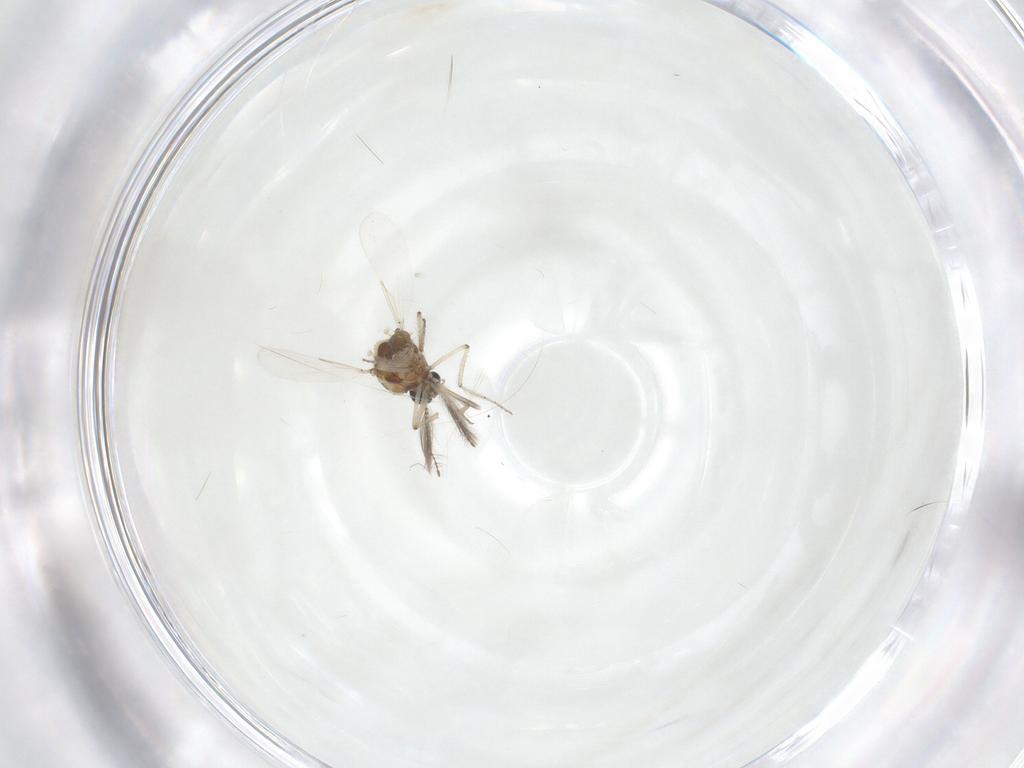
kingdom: Animalia
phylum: Arthropoda
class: Insecta
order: Diptera
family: Ceratopogonidae
